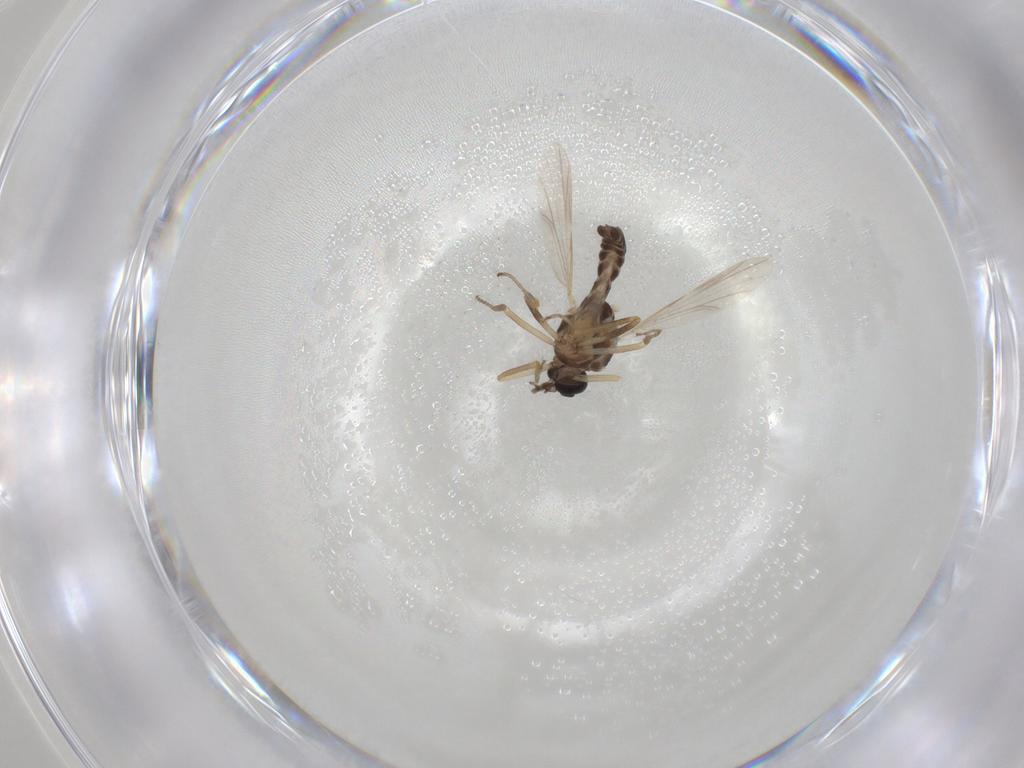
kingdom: Animalia
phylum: Arthropoda
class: Insecta
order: Diptera
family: Ceratopogonidae
